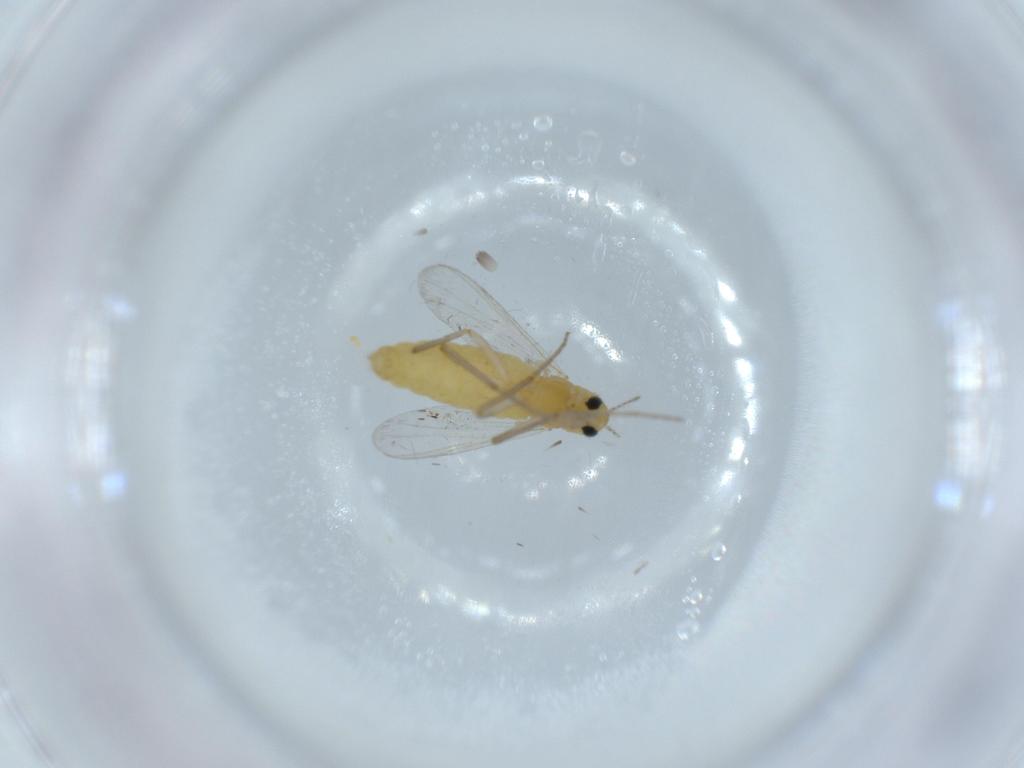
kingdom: Animalia
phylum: Arthropoda
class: Insecta
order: Diptera
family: Chironomidae
